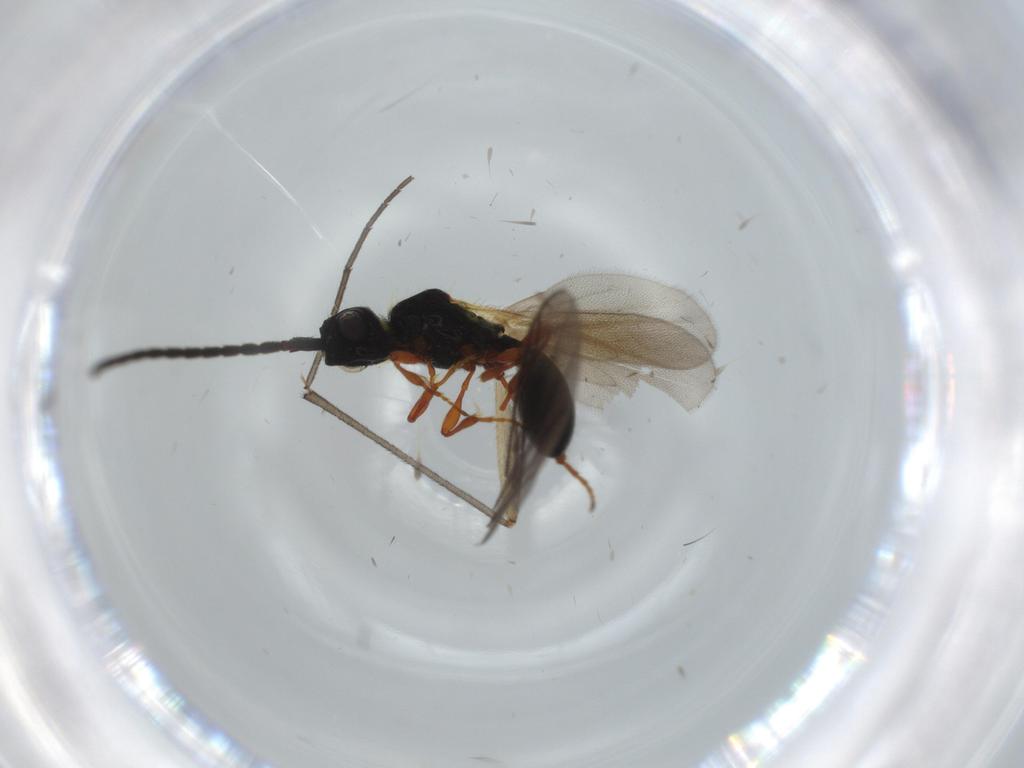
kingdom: Animalia
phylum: Arthropoda
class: Insecta
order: Hymenoptera
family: Diapriidae
